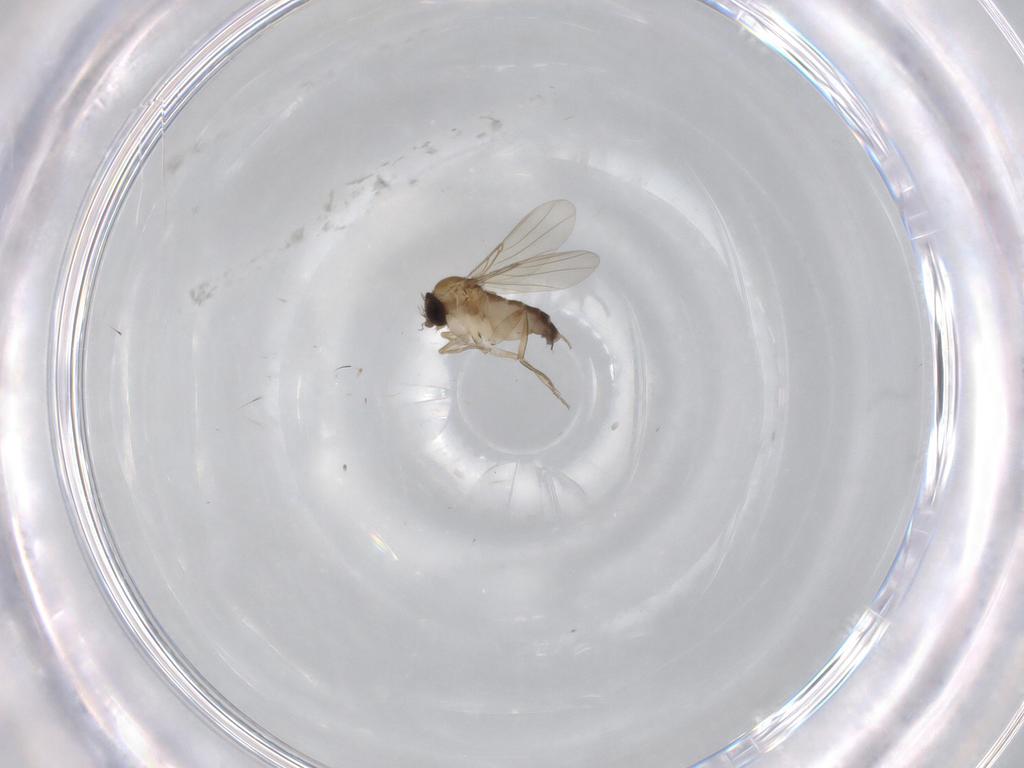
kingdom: Animalia
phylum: Arthropoda
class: Insecta
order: Diptera
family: Phoridae
